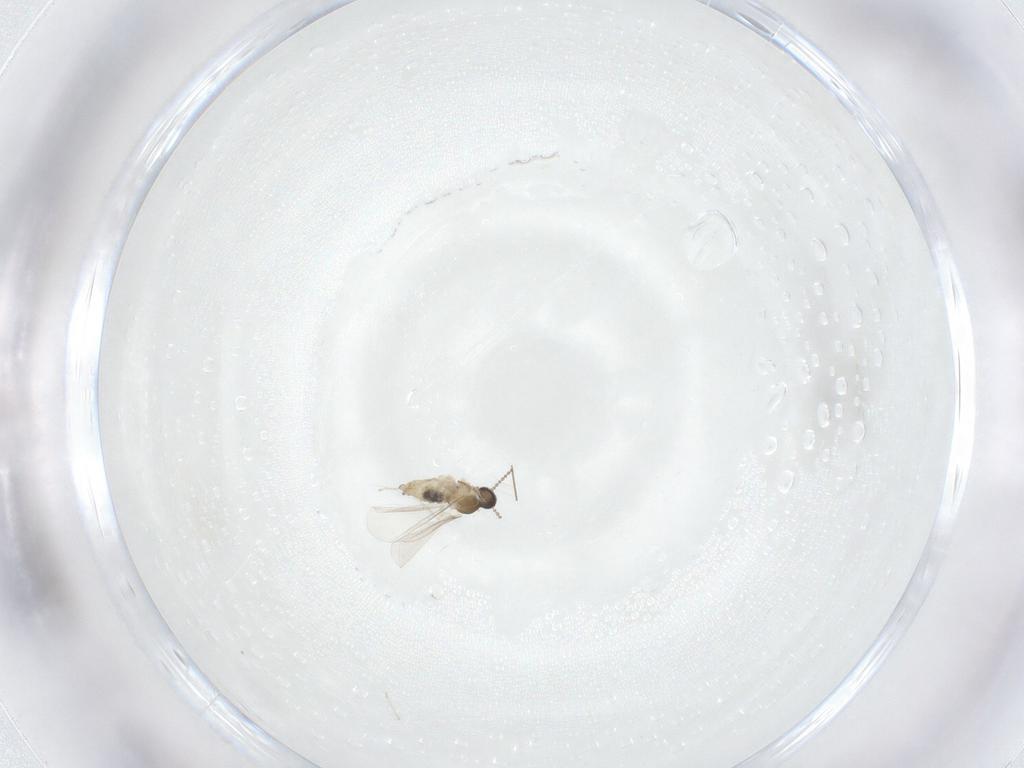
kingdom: Animalia
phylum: Arthropoda
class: Insecta
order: Diptera
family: Cecidomyiidae
